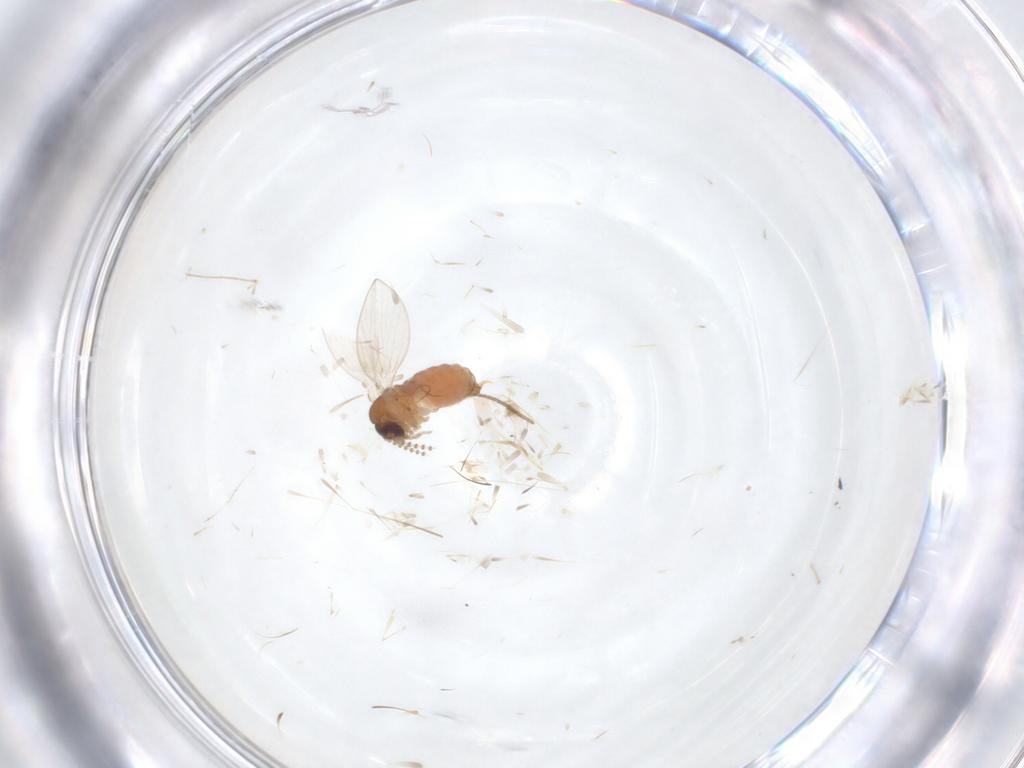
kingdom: Animalia
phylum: Arthropoda
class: Insecta
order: Diptera
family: Cecidomyiidae
